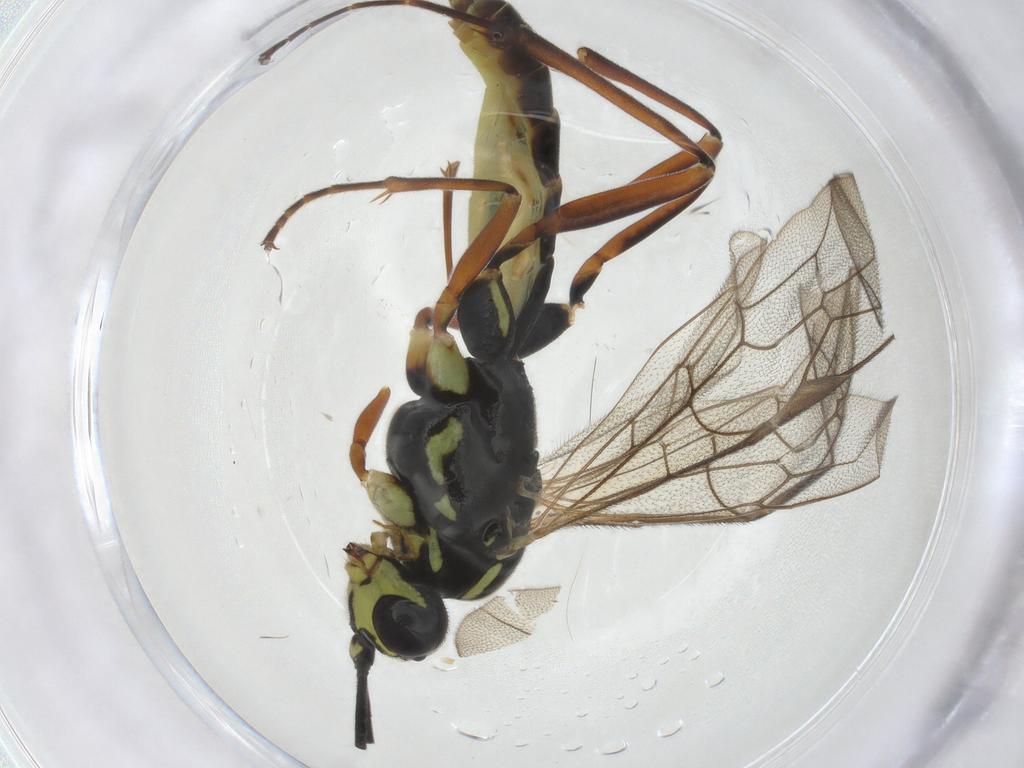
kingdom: Animalia
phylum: Arthropoda
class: Insecta
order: Hymenoptera
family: Ichneumonidae
